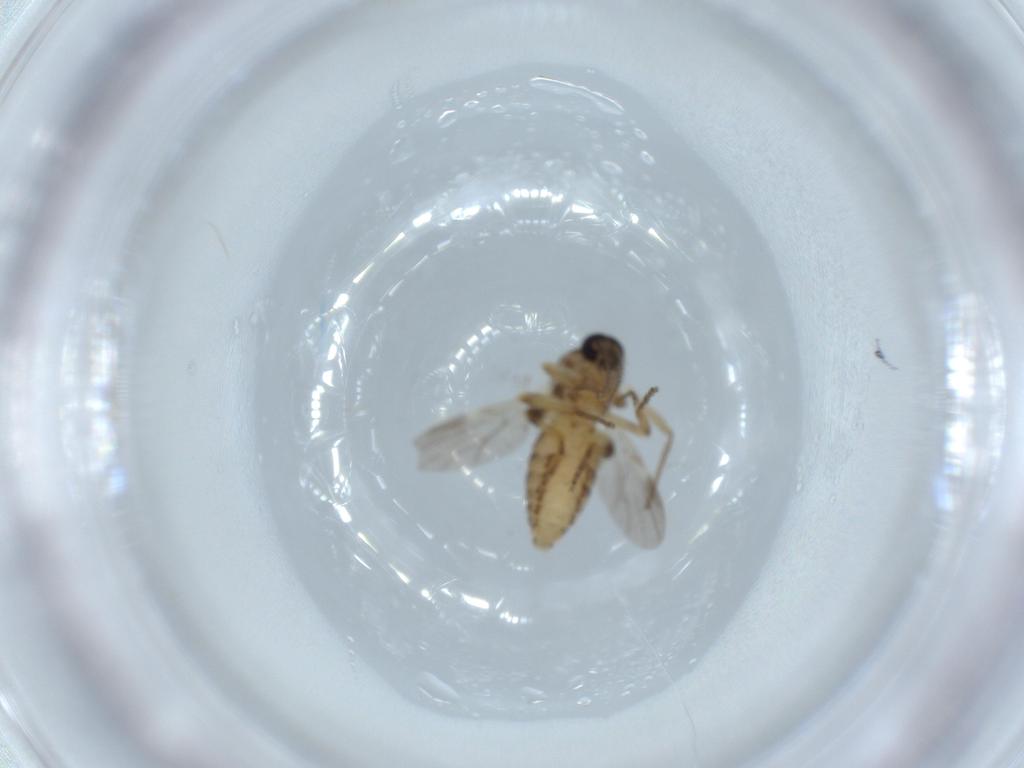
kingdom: Animalia
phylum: Arthropoda
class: Insecta
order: Diptera
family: Ceratopogonidae
